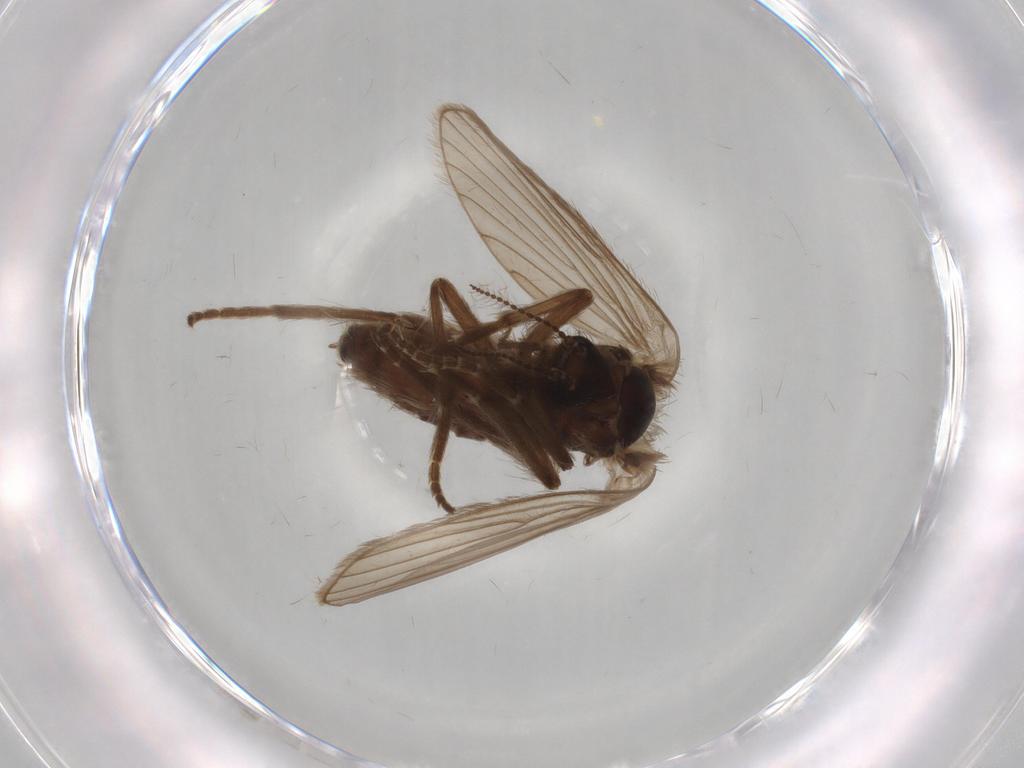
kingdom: Animalia
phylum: Arthropoda
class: Insecta
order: Diptera
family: Psychodidae
